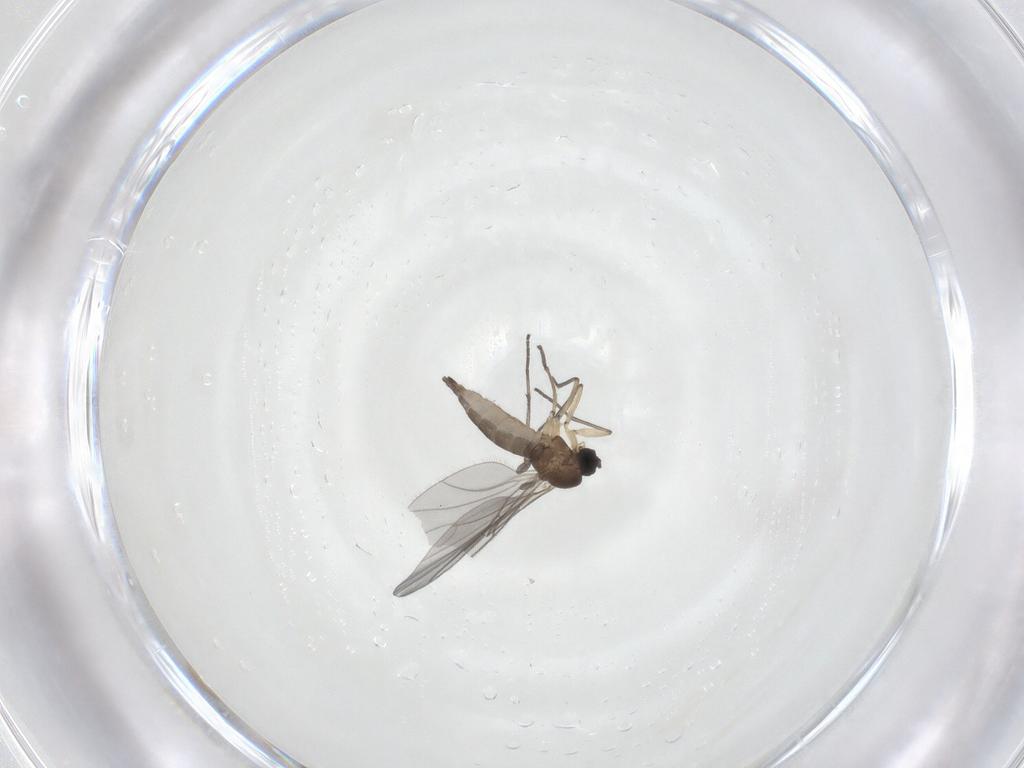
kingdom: Animalia
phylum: Arthropoda
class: Insecta
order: Diptera
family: Sciaridae
